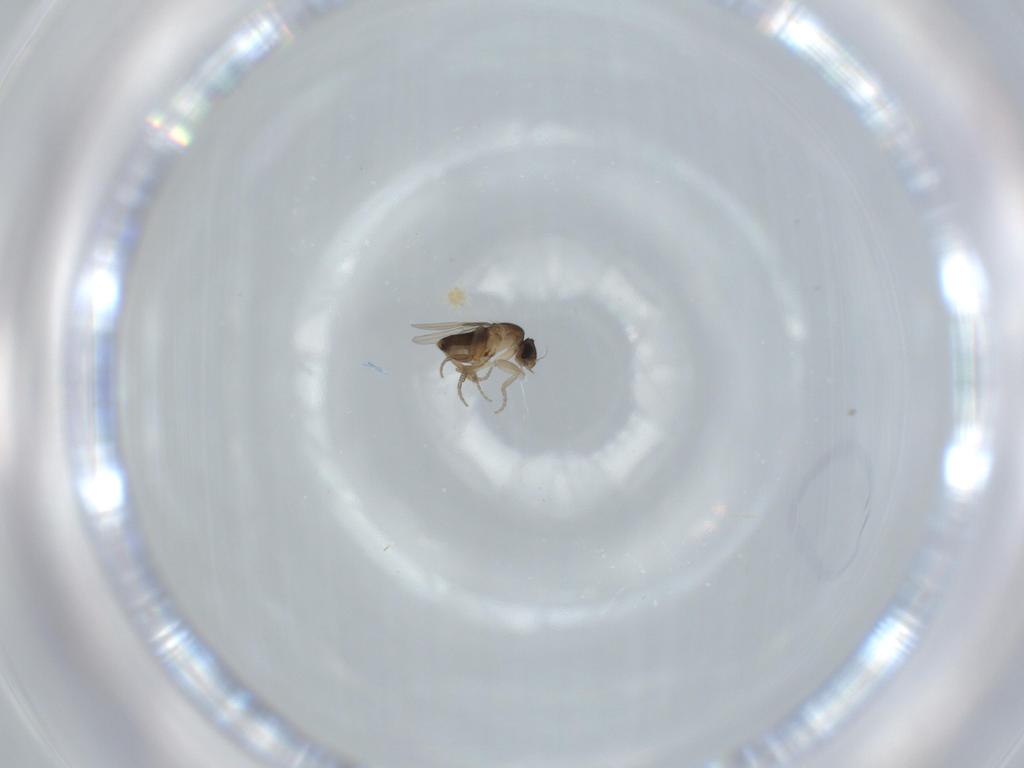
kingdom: Animalia
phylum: Arthropoda
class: Insecta
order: Diptera
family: Phoridae
